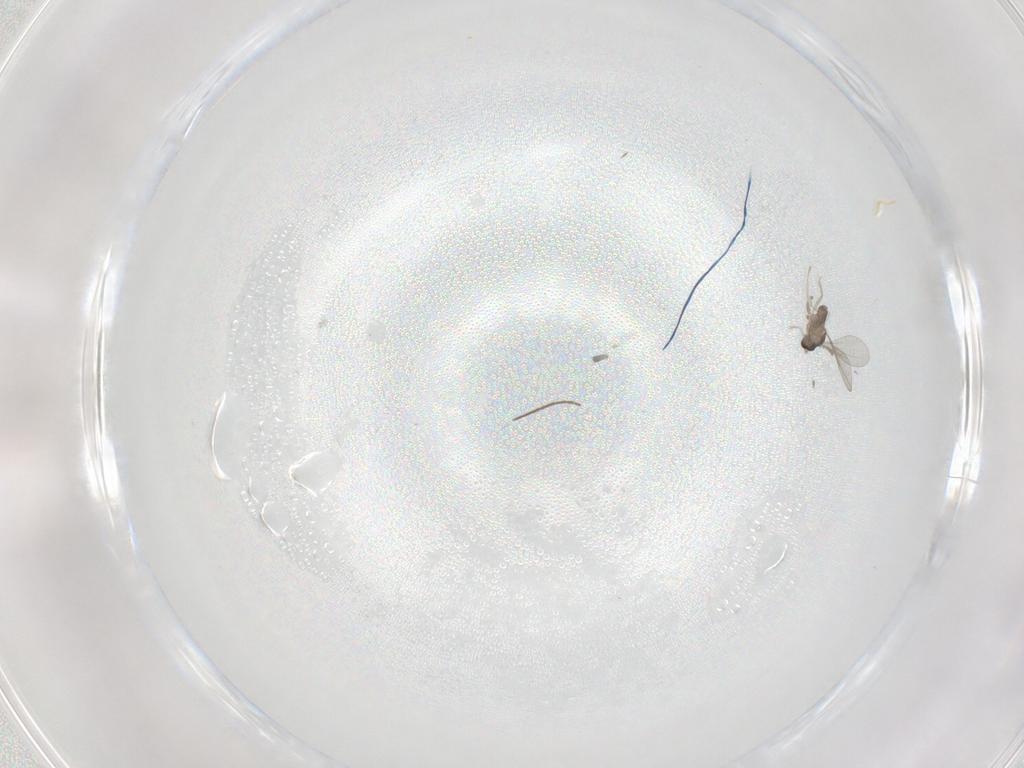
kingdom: Animalia
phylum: Arthropoda
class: Insecta
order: Diptera
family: Chironomidae
